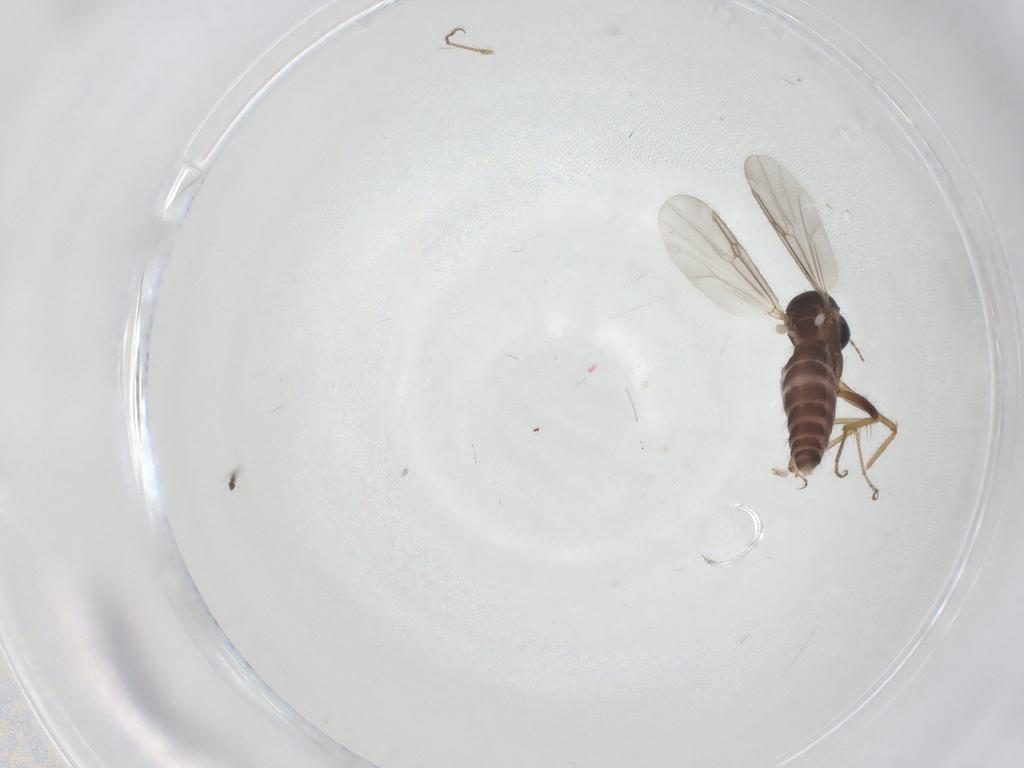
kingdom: Animalia
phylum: Arthropoda
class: Insecta
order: Diptera
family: Ceratopogonidae
